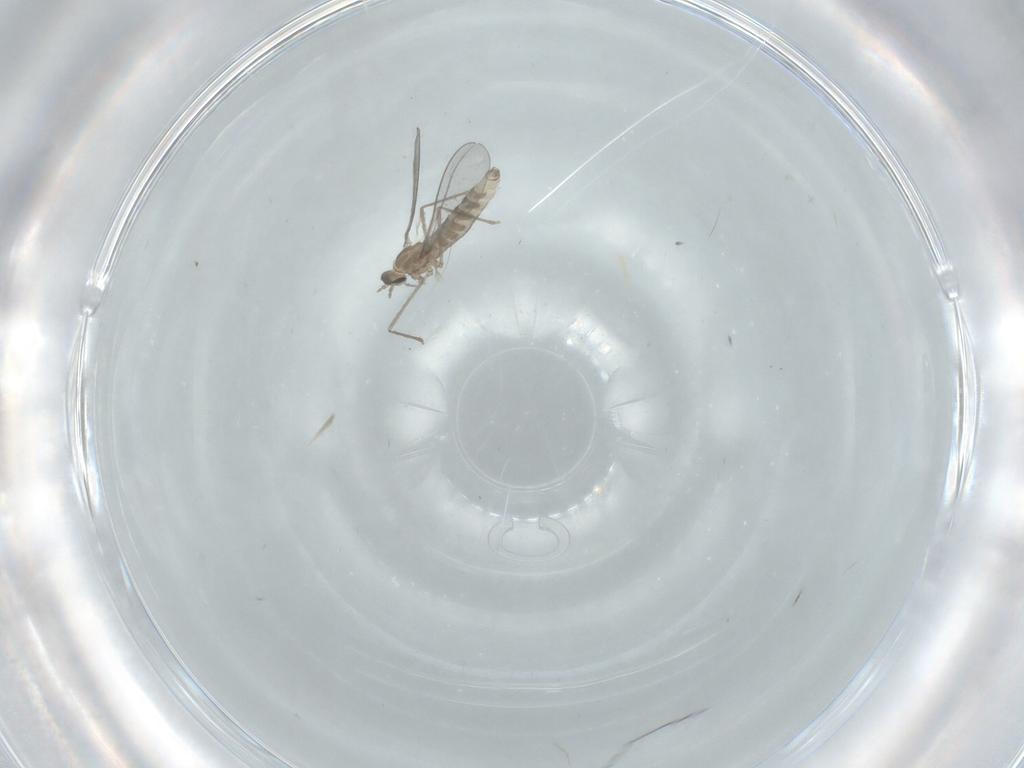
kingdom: Animalia
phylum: Arthropoda
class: Insecta
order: Diptera
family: Cecidomyiidae
